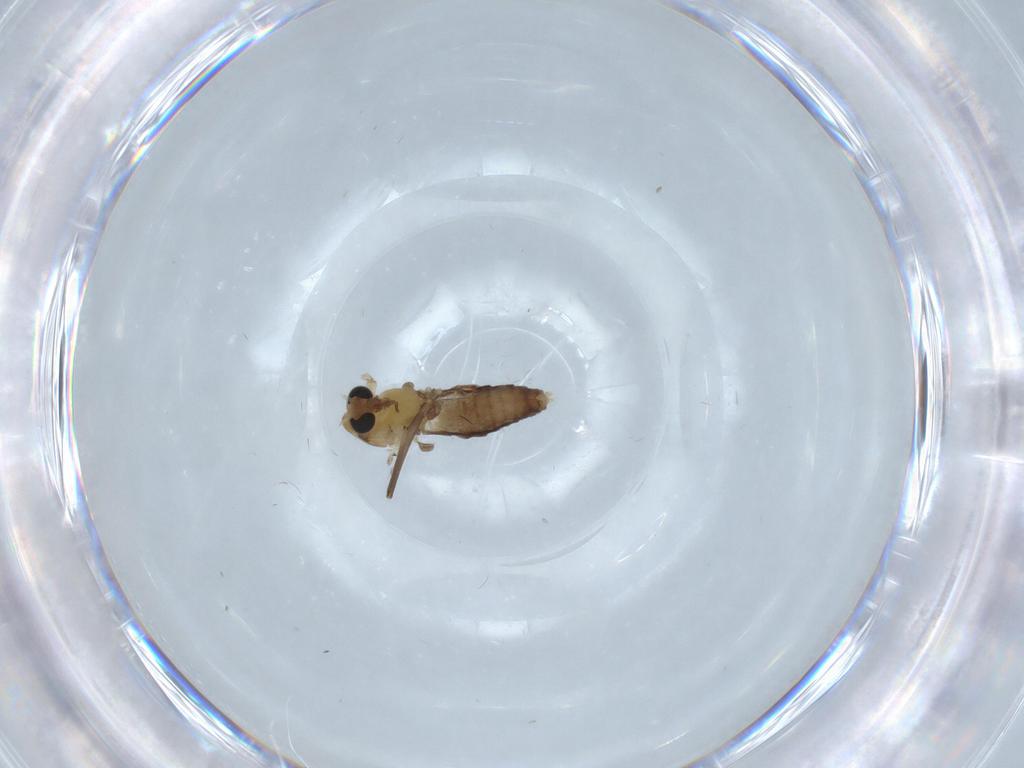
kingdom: Animalia
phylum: Arthropoda
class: Insecta
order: Diptera
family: Chironomidae
